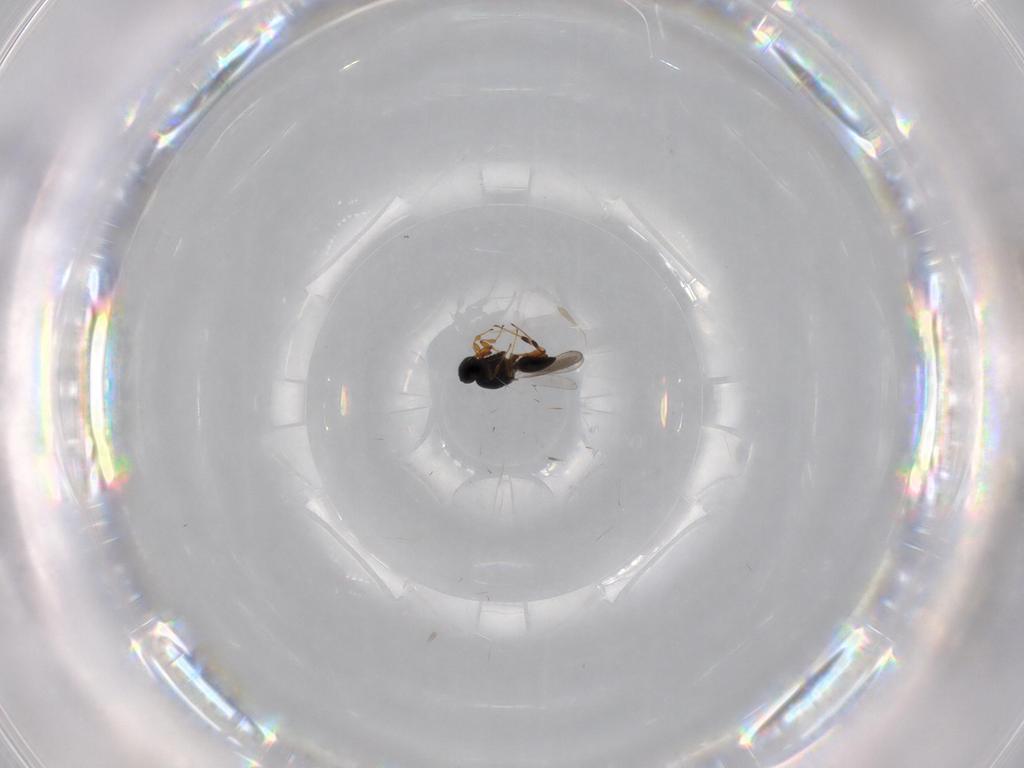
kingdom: Animalia
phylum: Arthropoda
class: Insecta
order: Hymenoptera
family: Platygastridae
